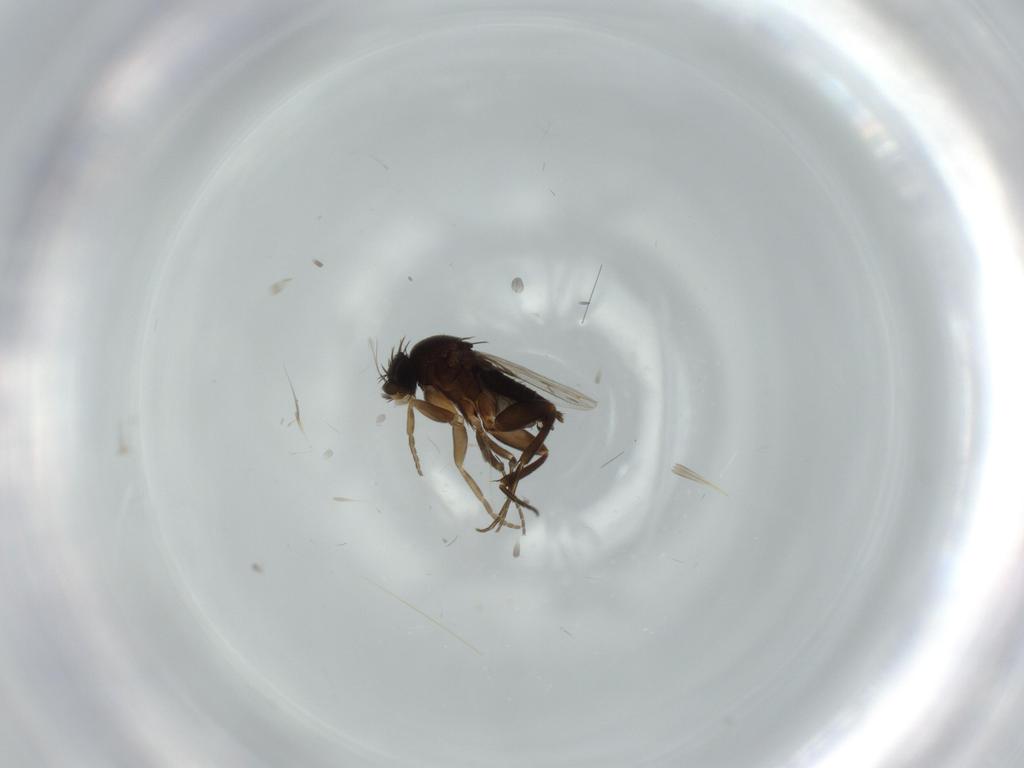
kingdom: Animalia
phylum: Arthropoda
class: Insecta
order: Diptera
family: Phoridae
